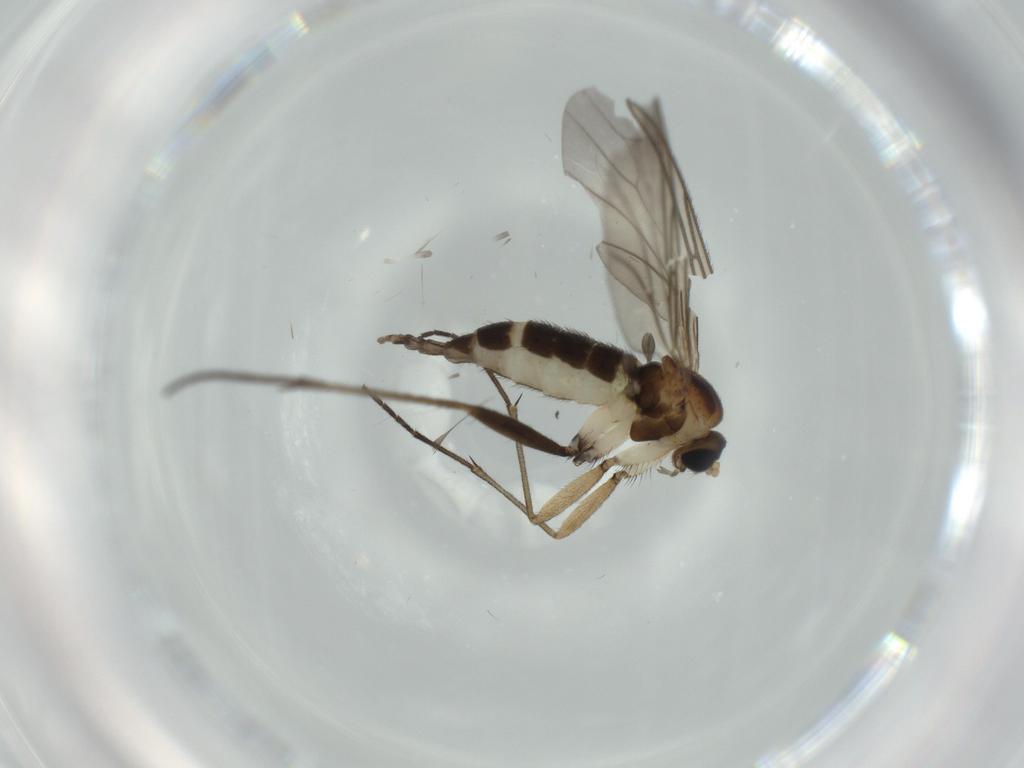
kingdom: Animalia
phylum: Arthropoda
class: Insecta
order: Diptera
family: Sciaridae
